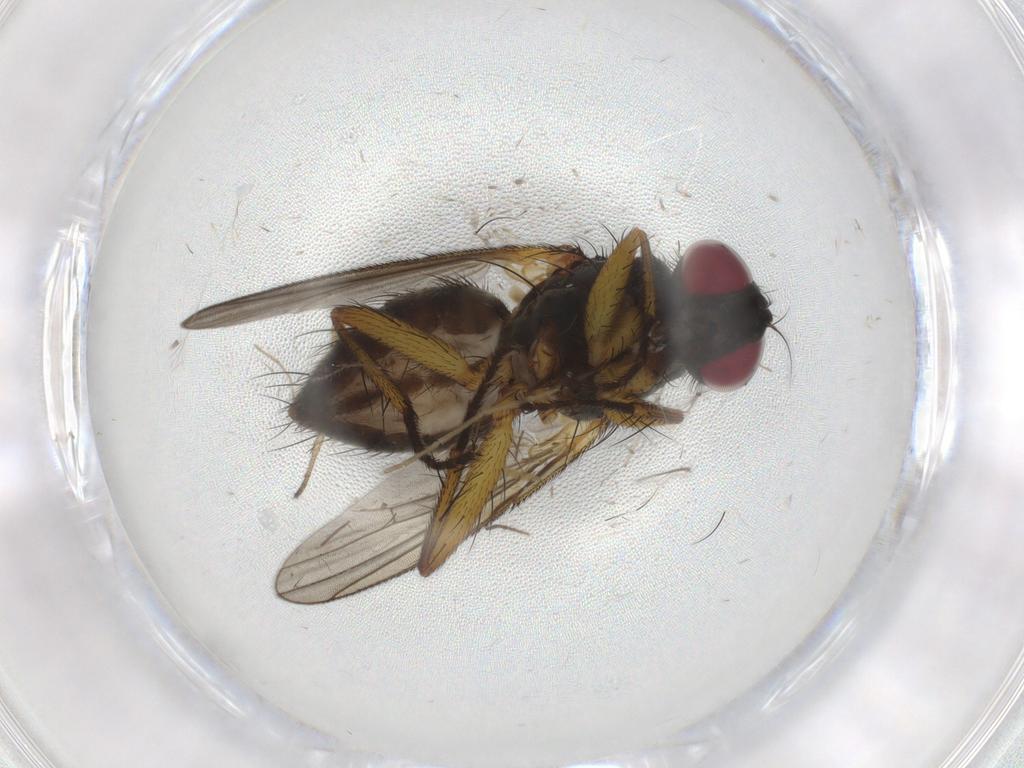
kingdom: Animalia
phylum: Arthropoda
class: Insecta
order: Diptera
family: Muscidae
